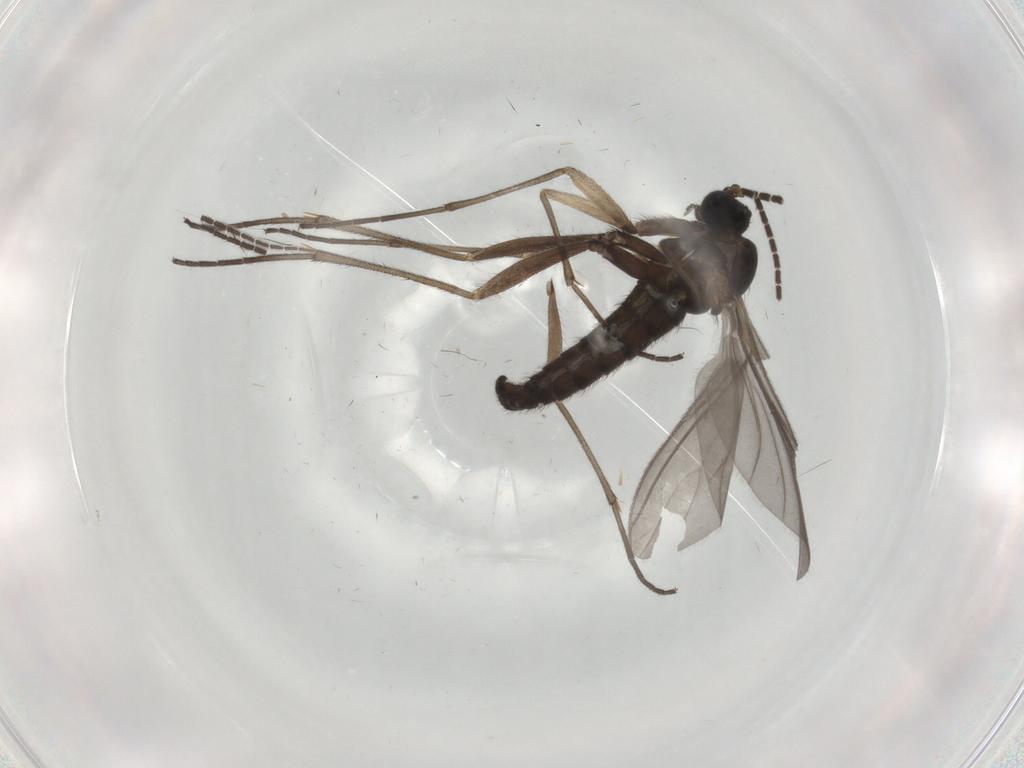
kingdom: Animalia
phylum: Arthropoda
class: Insecta
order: Diptera
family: Sciaridae
